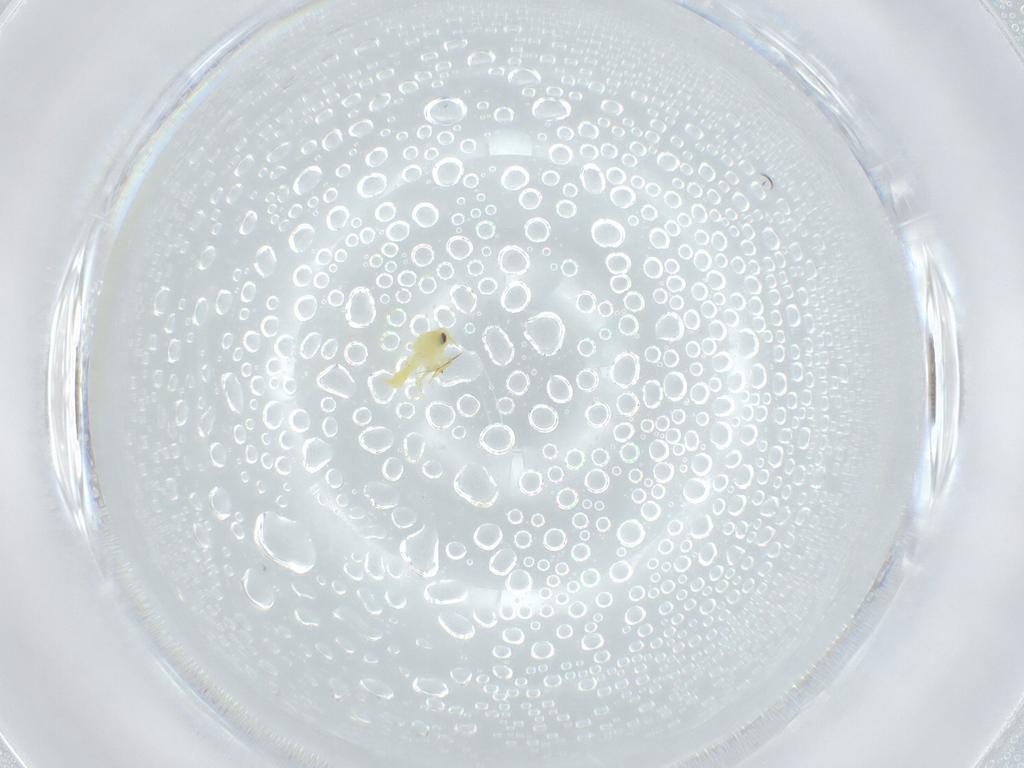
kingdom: Animalia
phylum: Arthropoda
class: Insecta
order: Hemiptera
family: Aleyrodidae
